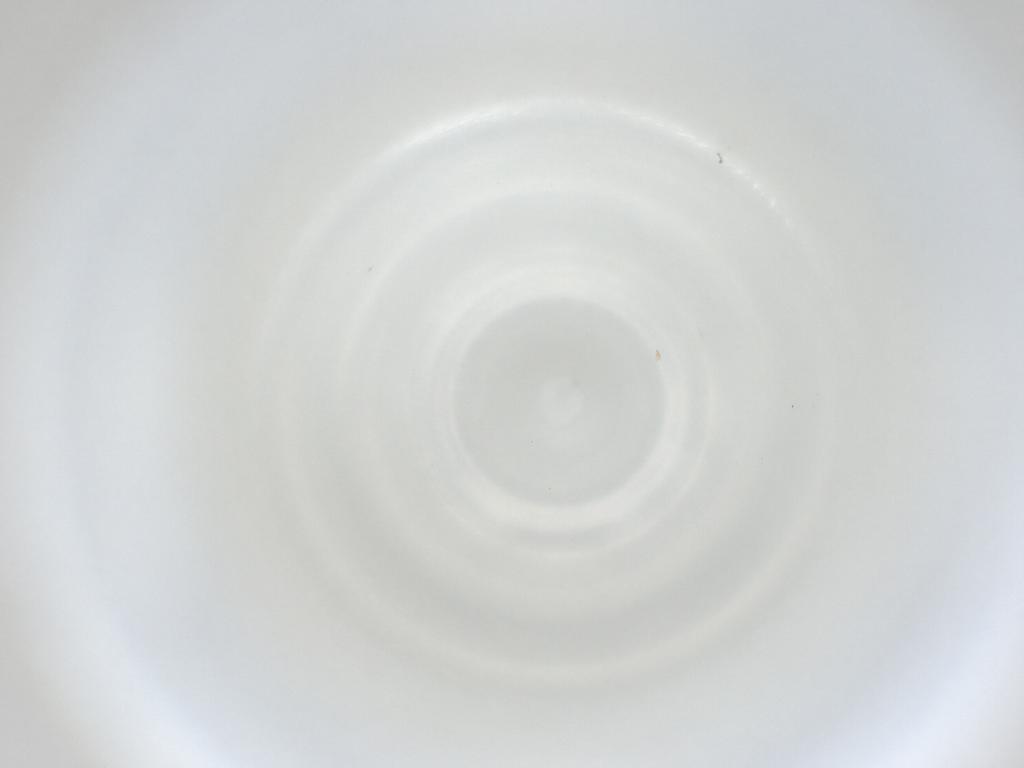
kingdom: Animalia
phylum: Arthropoda
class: Insecta
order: Diptera
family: Cecidomyiidae
